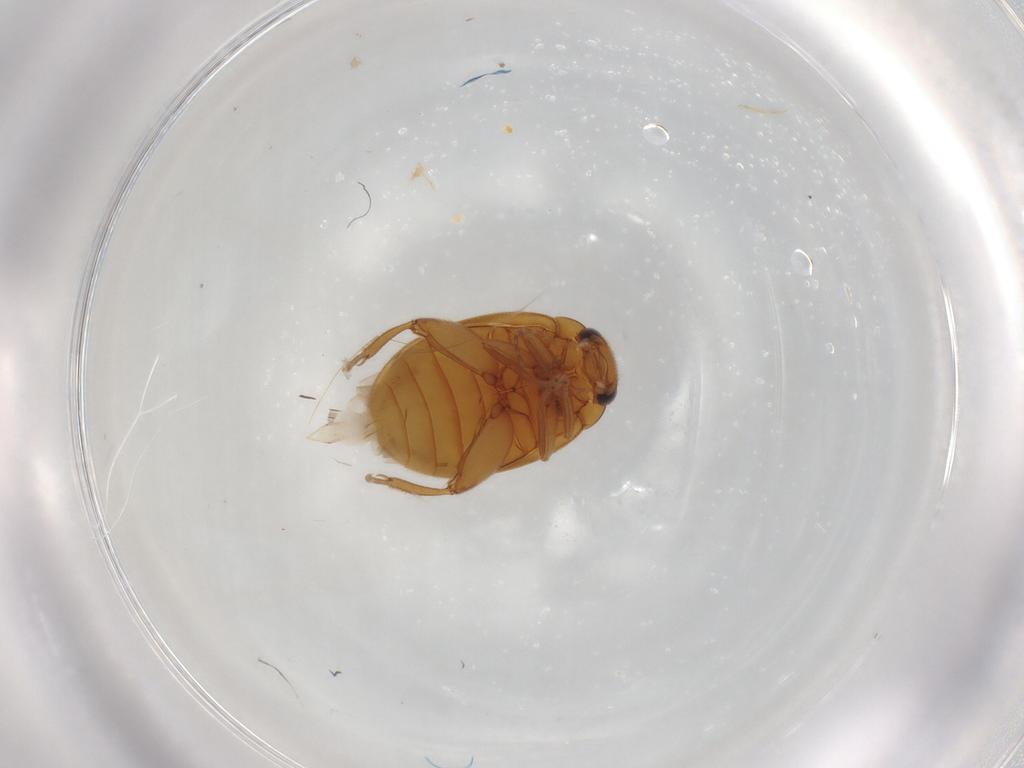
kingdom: Animalia
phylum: Arthropoda
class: Insecta
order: Coleoptera
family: Scirtidae
